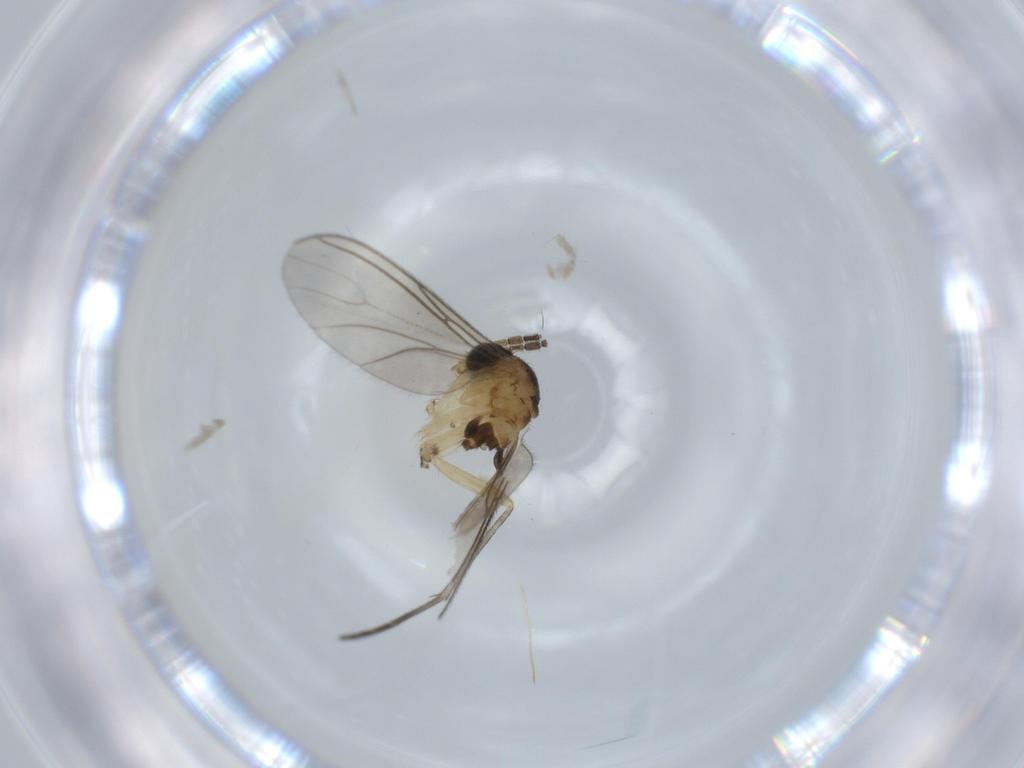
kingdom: Animalia
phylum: Arthropoda
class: Insecta
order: Diptera
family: Sciaridae
